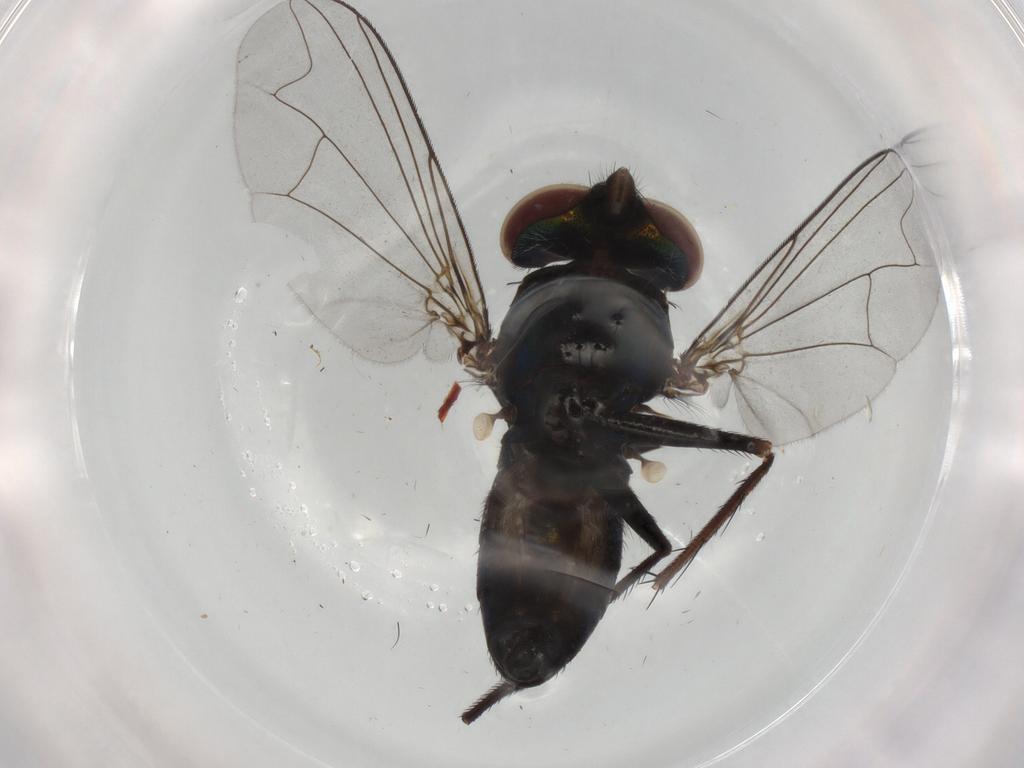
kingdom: Animalia
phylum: Arthropoda
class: Insecta
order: Diptera
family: Dolichopodidae
